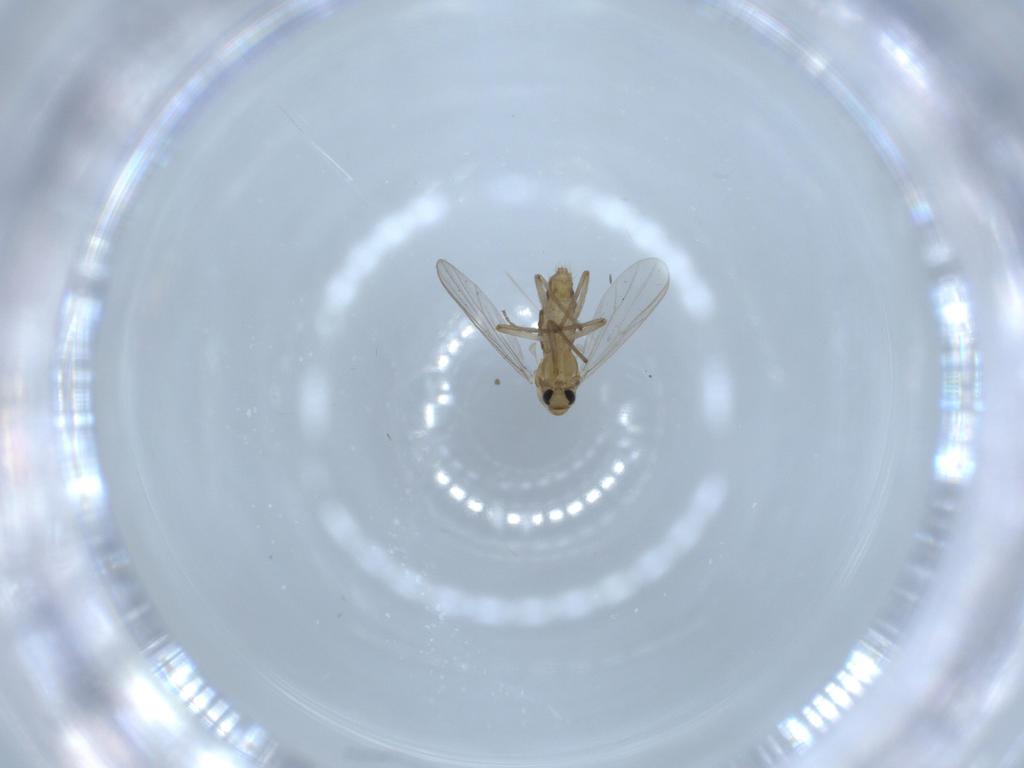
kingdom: Animalia
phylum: Arthropoda
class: Insecta
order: Diptera
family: Chironomidae
